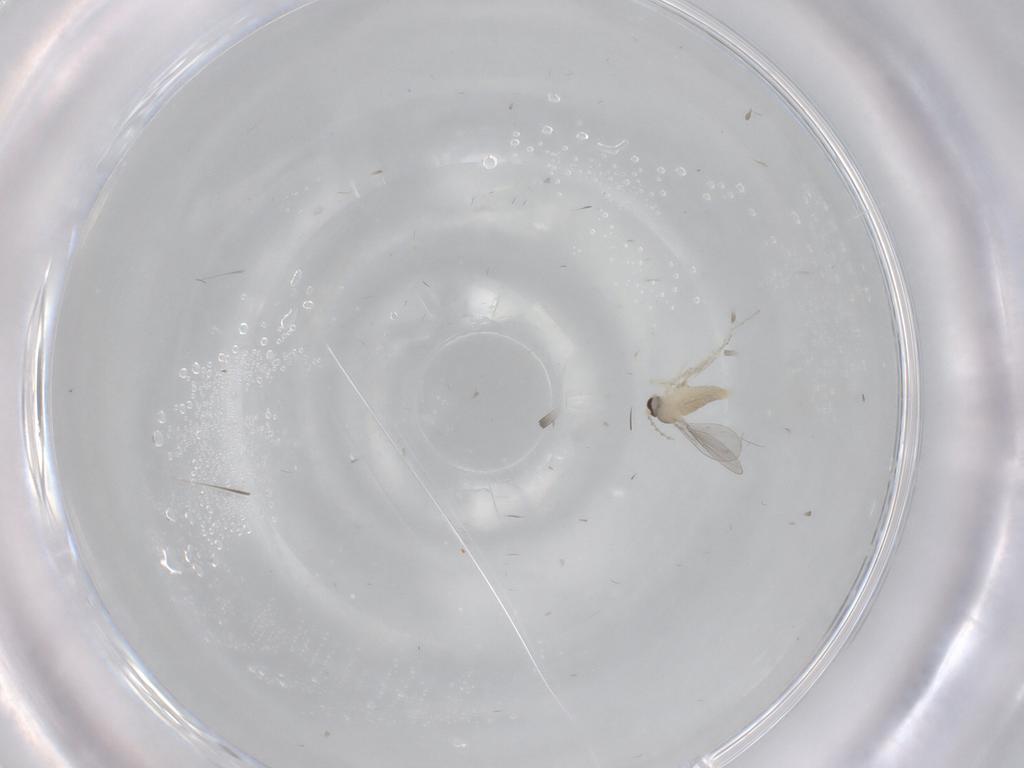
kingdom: Animalia
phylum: Arthropoda
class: Insecta
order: Diptera
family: Cecidomyiidae
